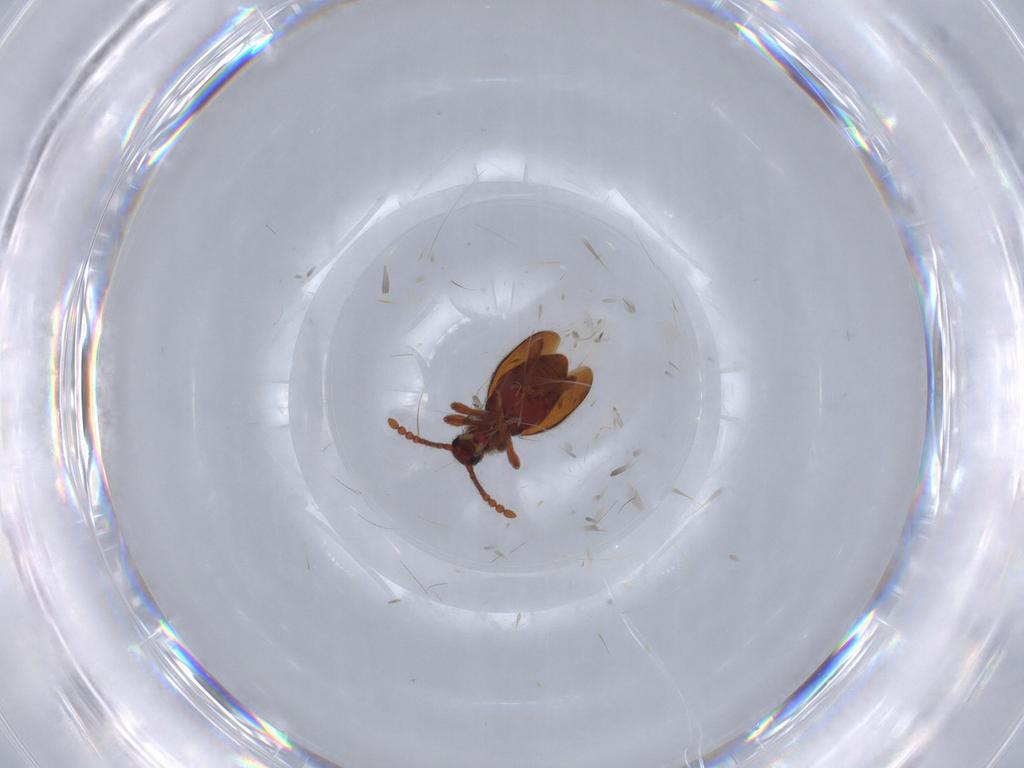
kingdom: Animalia
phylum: Arthropoda
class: Insecta
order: Coleoptera
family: Staphylinidae
